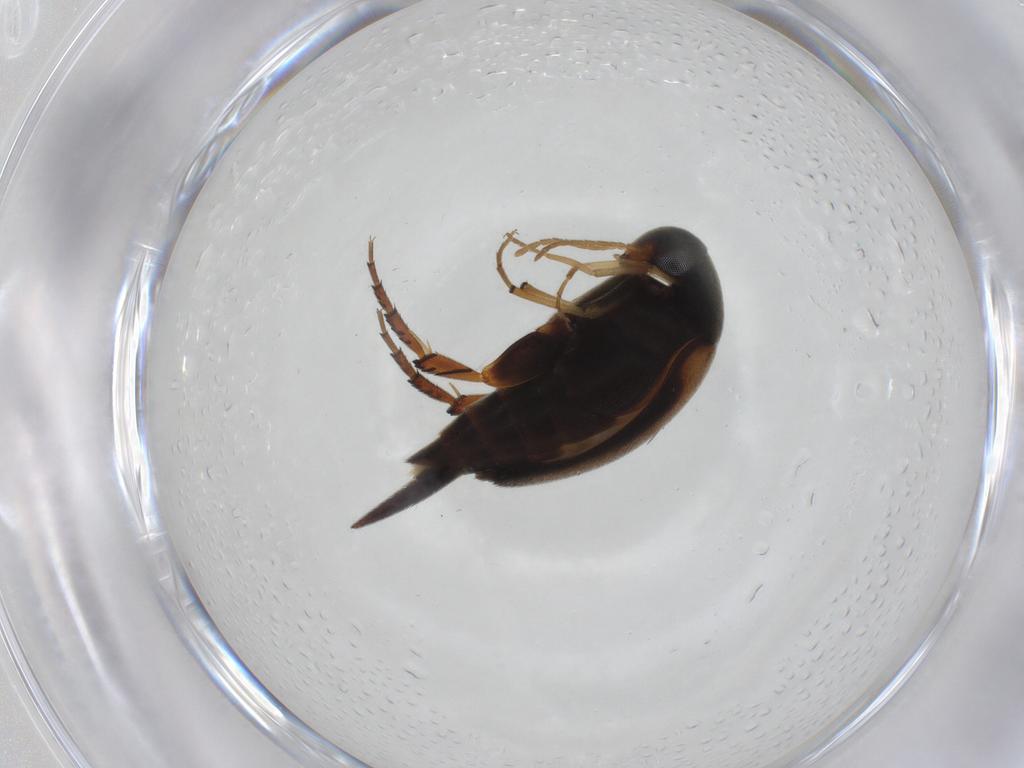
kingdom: Animalia
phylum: Arthropoda
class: Insecta
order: Coleoptera
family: Mordellidae
